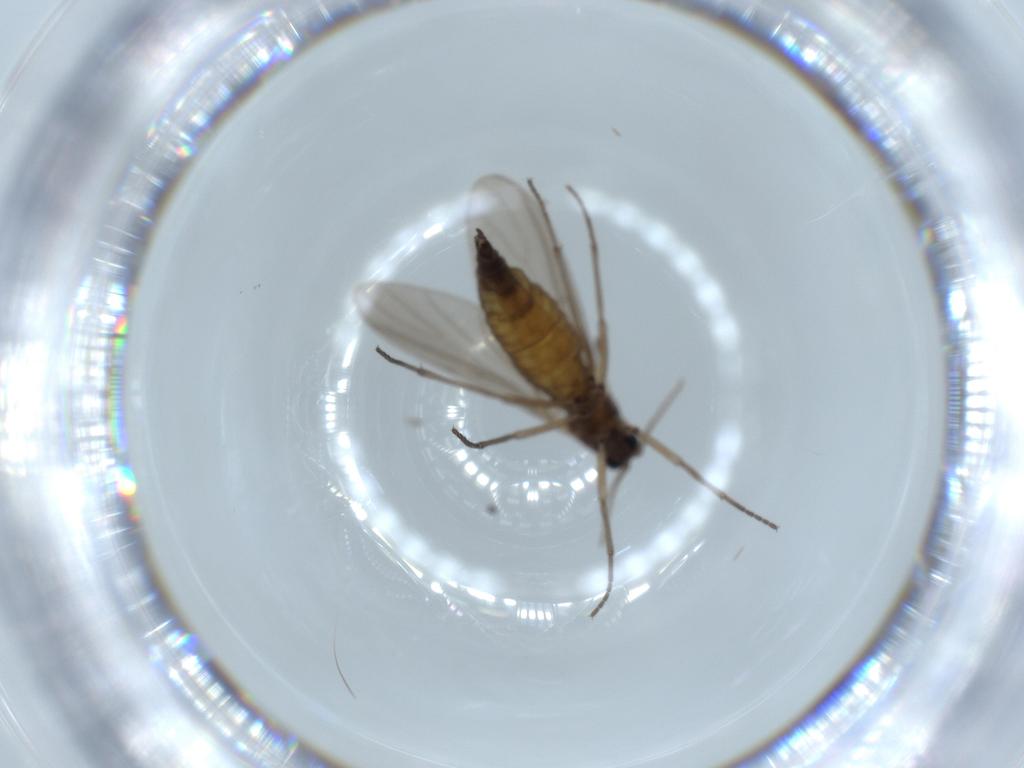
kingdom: Animalia
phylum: Arthropoda
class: Insecta
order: Diptera
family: Sciaridae
